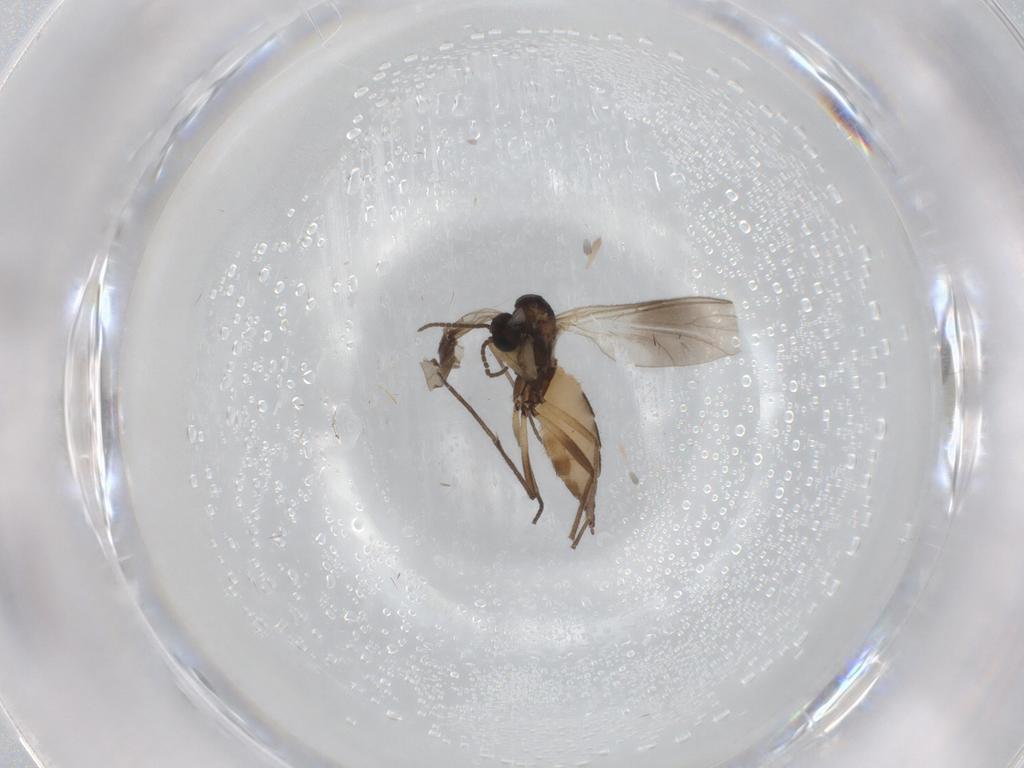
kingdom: Animalia
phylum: Arthropoda
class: Insecta
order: Diptera
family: Sciaridae
